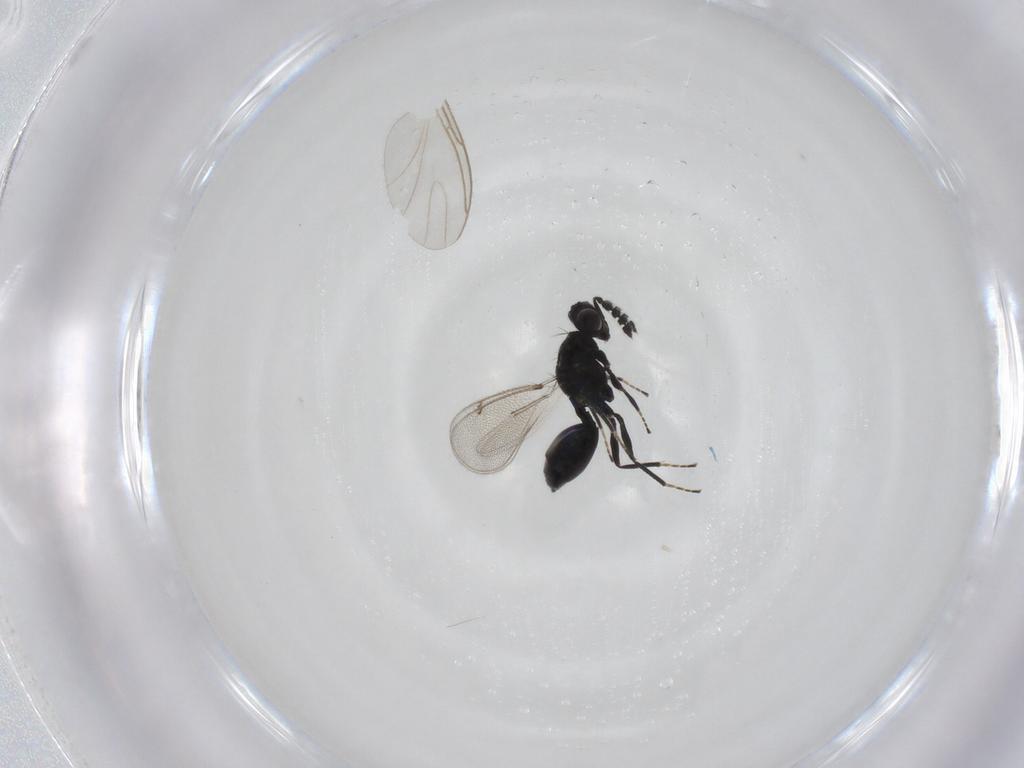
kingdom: Animalia
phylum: Arthropoda
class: Insecta
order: Hymenoptera
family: Eulophidae
